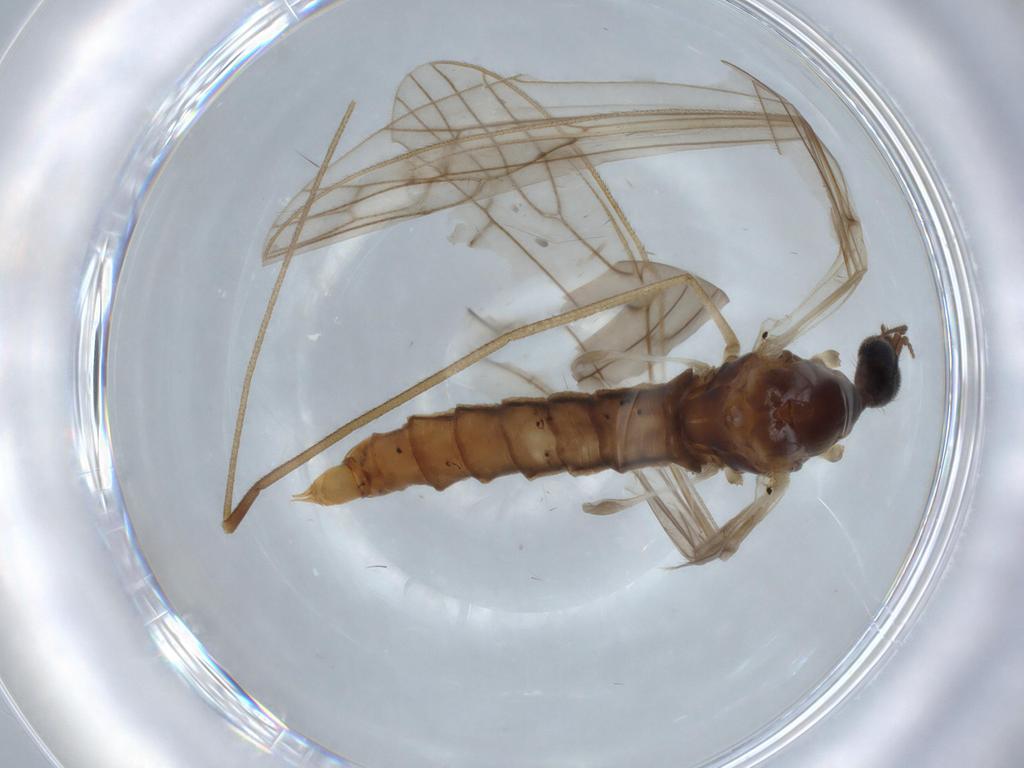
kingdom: Animalia
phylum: Arthropoda
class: Insecta
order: Diptera
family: Limoniidae
